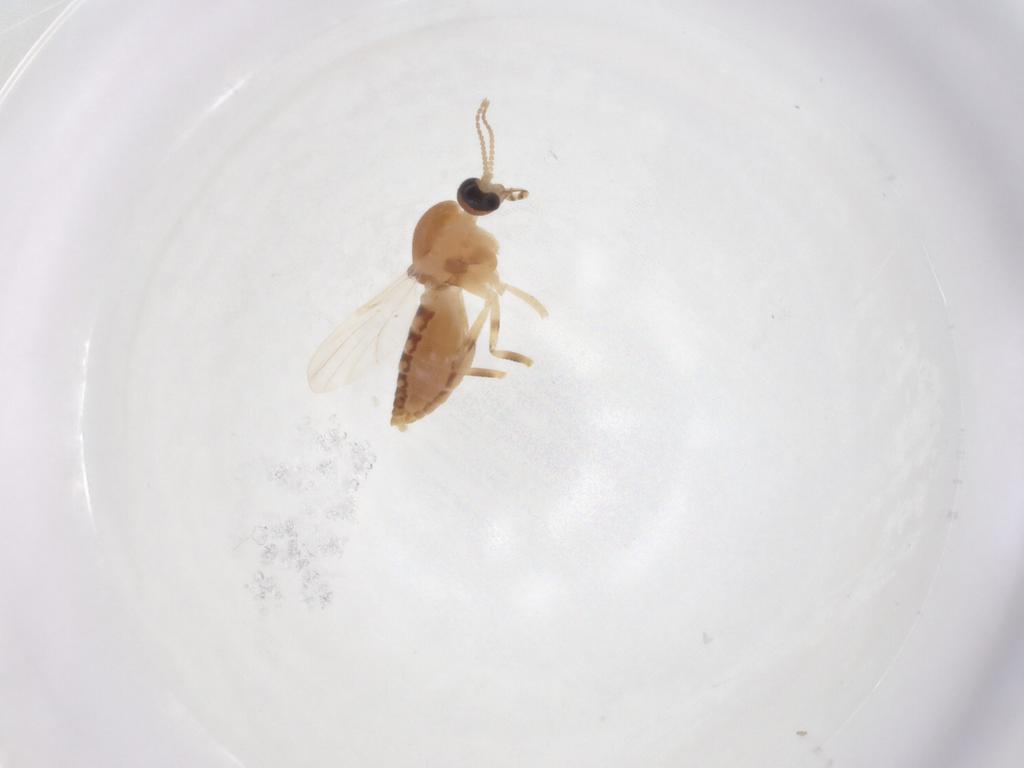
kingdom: Animalia
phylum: Arthropoda
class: Insecta
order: Diptera
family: Ceratopogonidae
